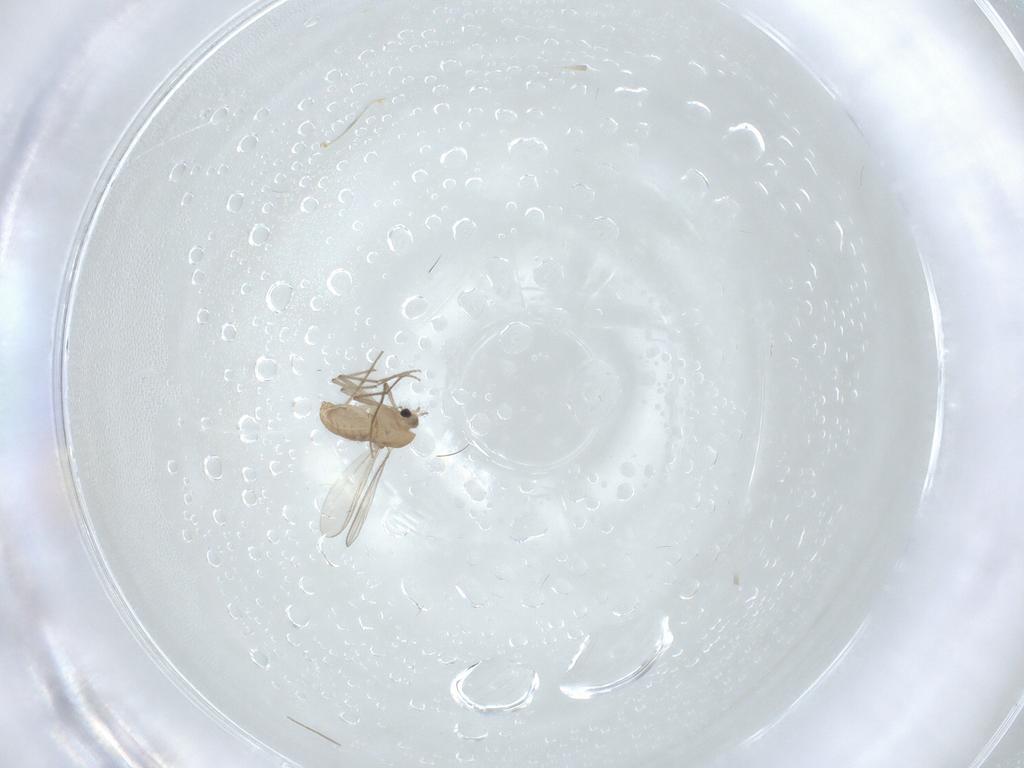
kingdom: Animalia
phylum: Arthropoda
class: Insecta
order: Diptera
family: Chironomidae
